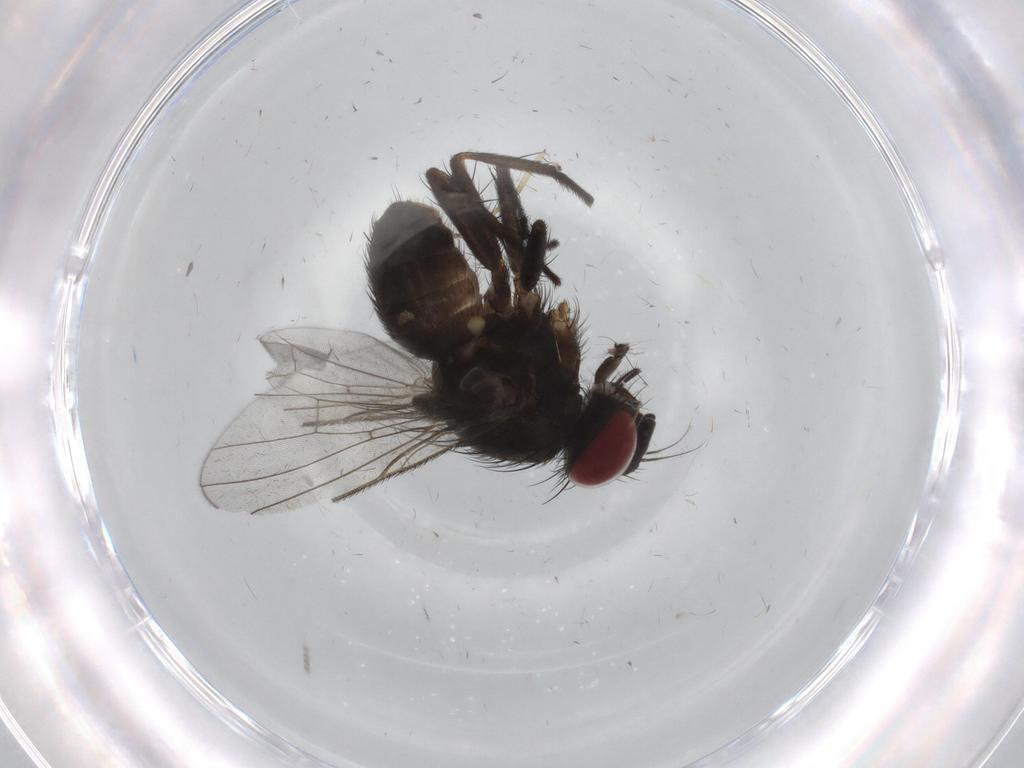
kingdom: Animalia
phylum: Arthropoda
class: Insecta
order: Diptera
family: Muscidae
